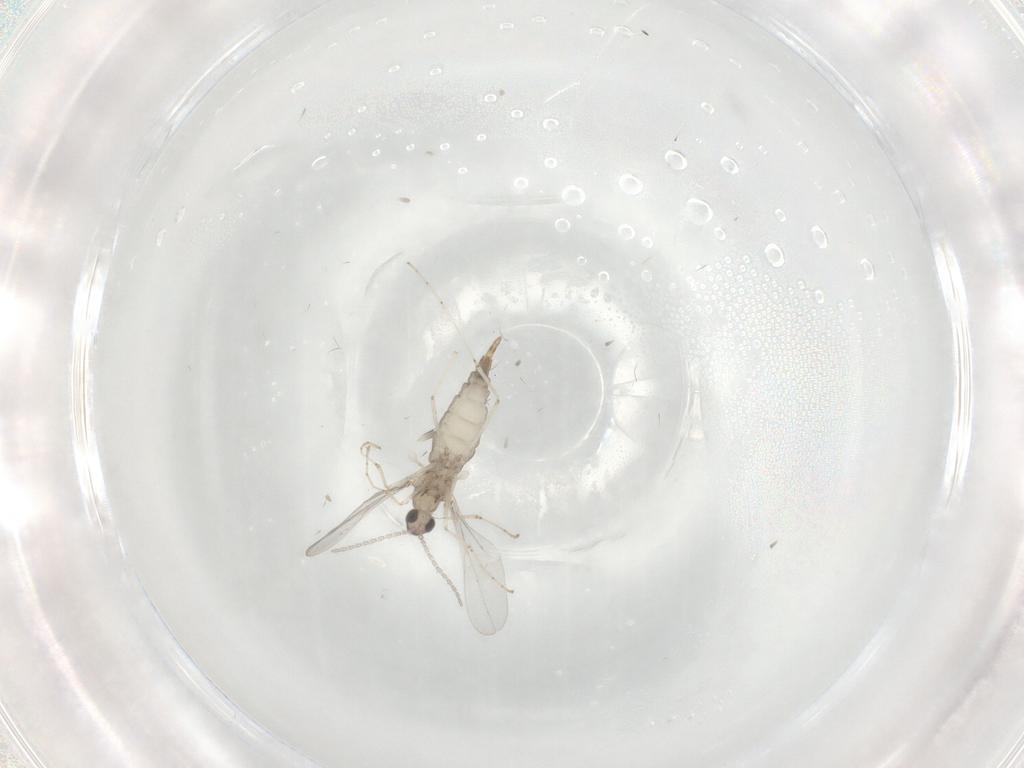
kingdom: Animalia
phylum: Arthropoda
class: Insecta
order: Diptera
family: Cecidomyiidae
